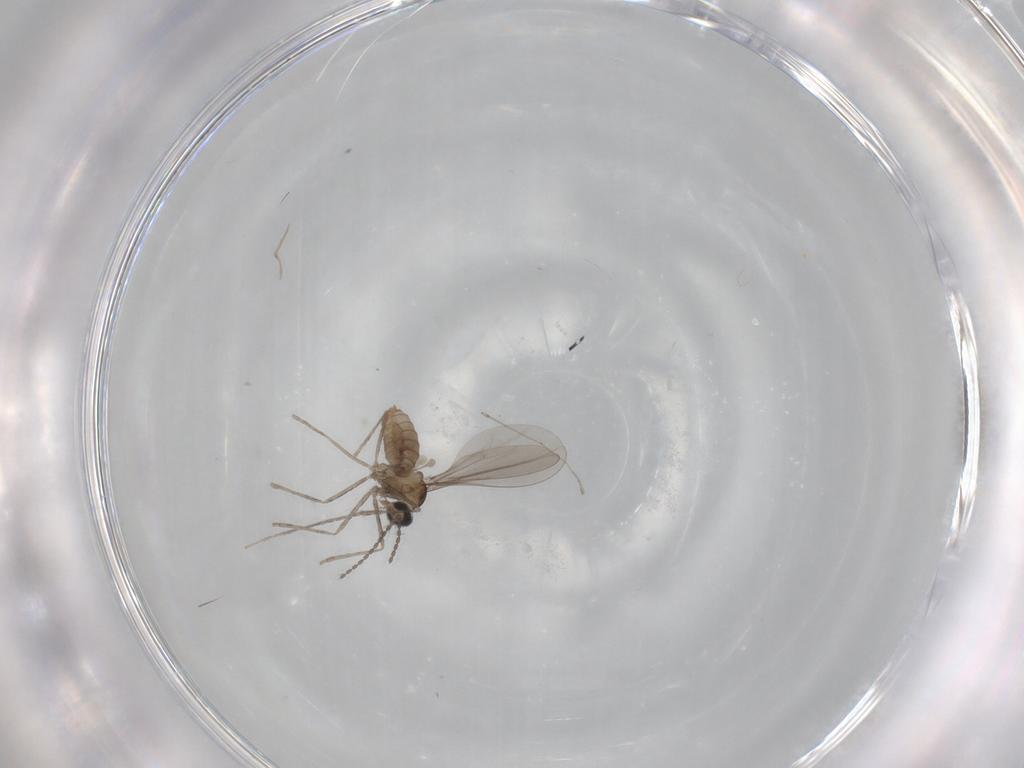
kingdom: Animalia
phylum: Arthropoda
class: Insecta
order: Diptera
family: Cecidomyiidae
